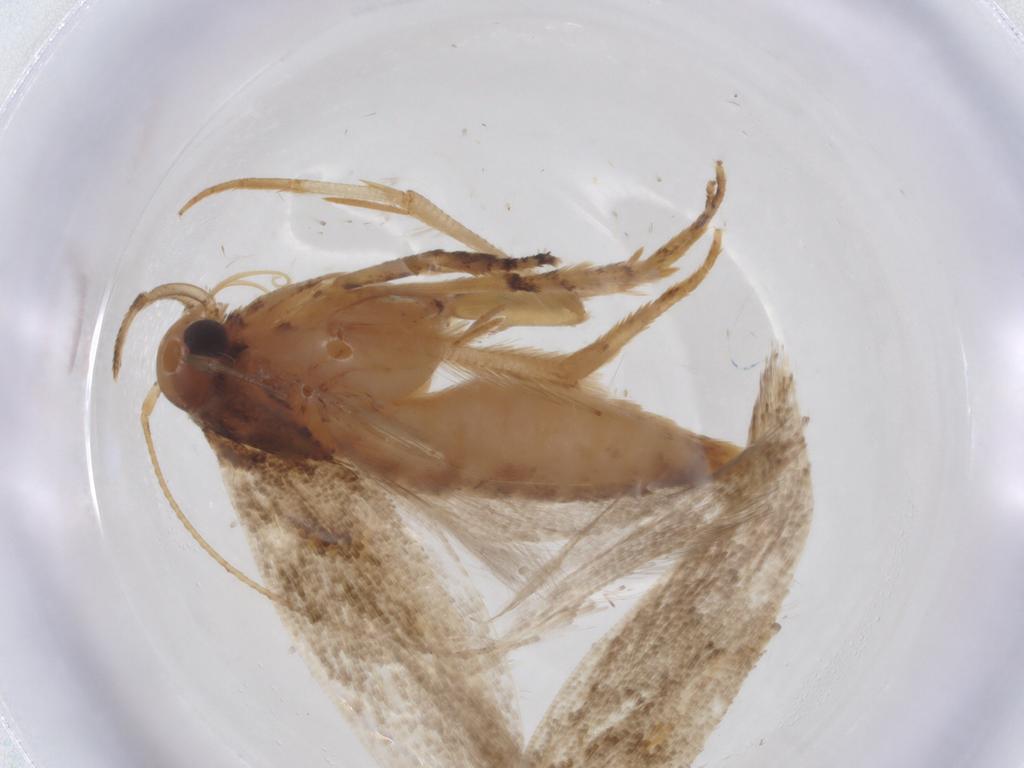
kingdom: Animalia
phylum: Arthropoda
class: Insecta
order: Lepidoptera
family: Gelechiidae
